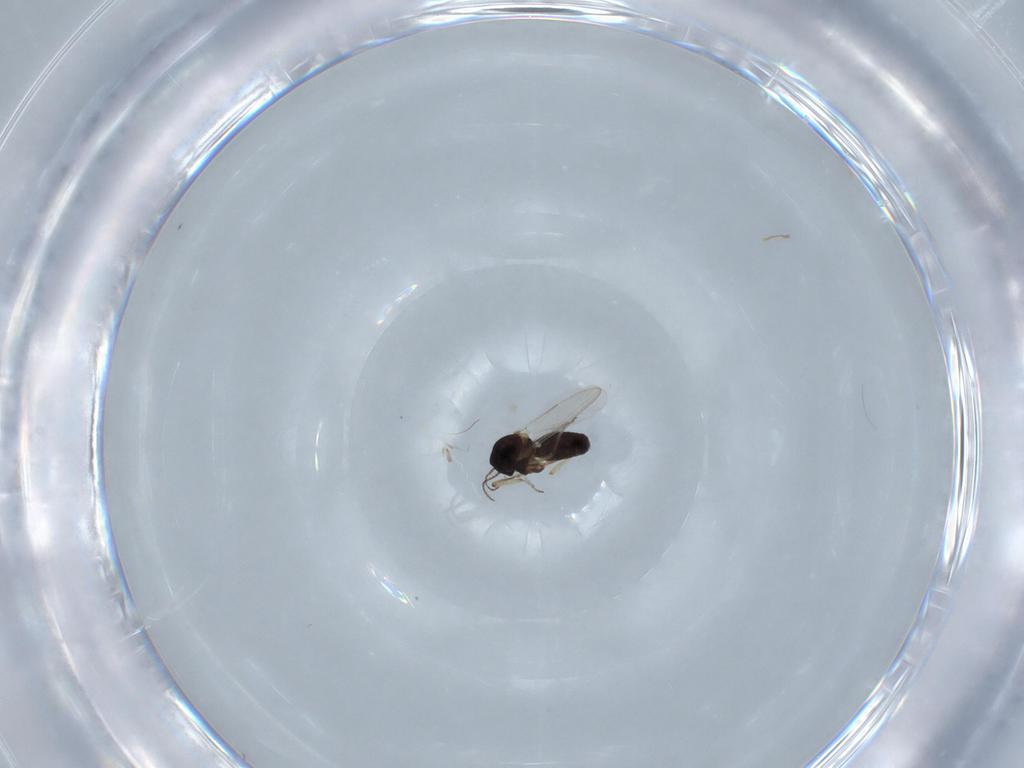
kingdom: Animalia
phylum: Arthropoda
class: Insecta
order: Diptera
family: Ceratopogonidae
